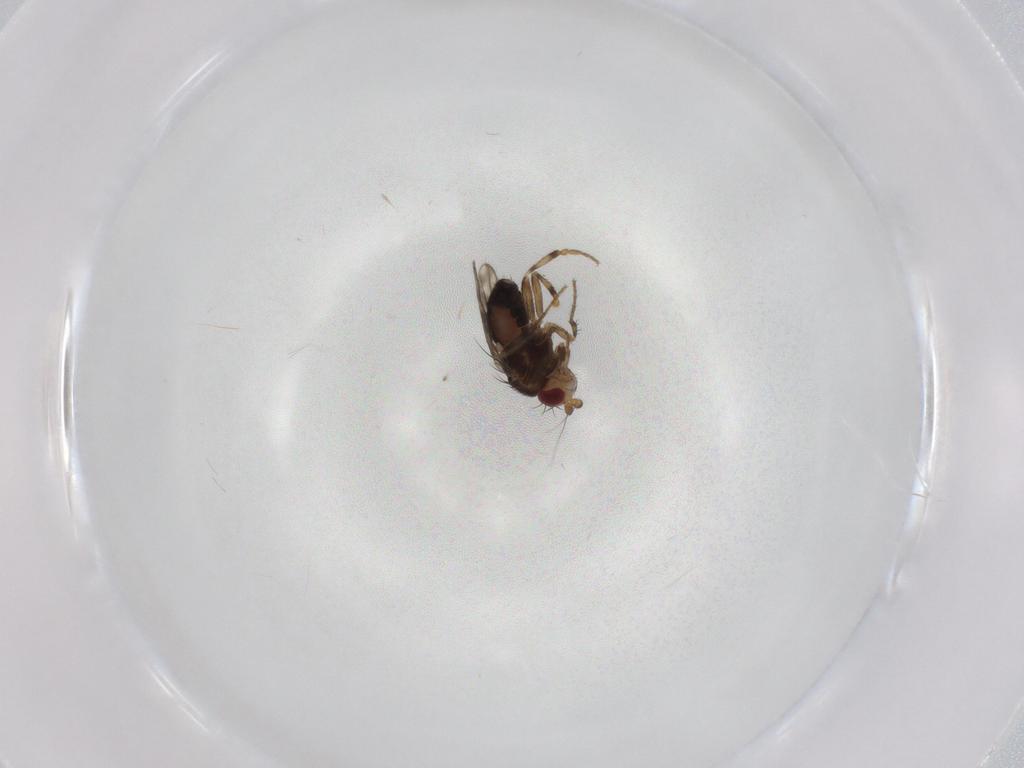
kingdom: Animalia
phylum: Arthropoda
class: Insecta
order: Diptera
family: Sphaeroceridae
